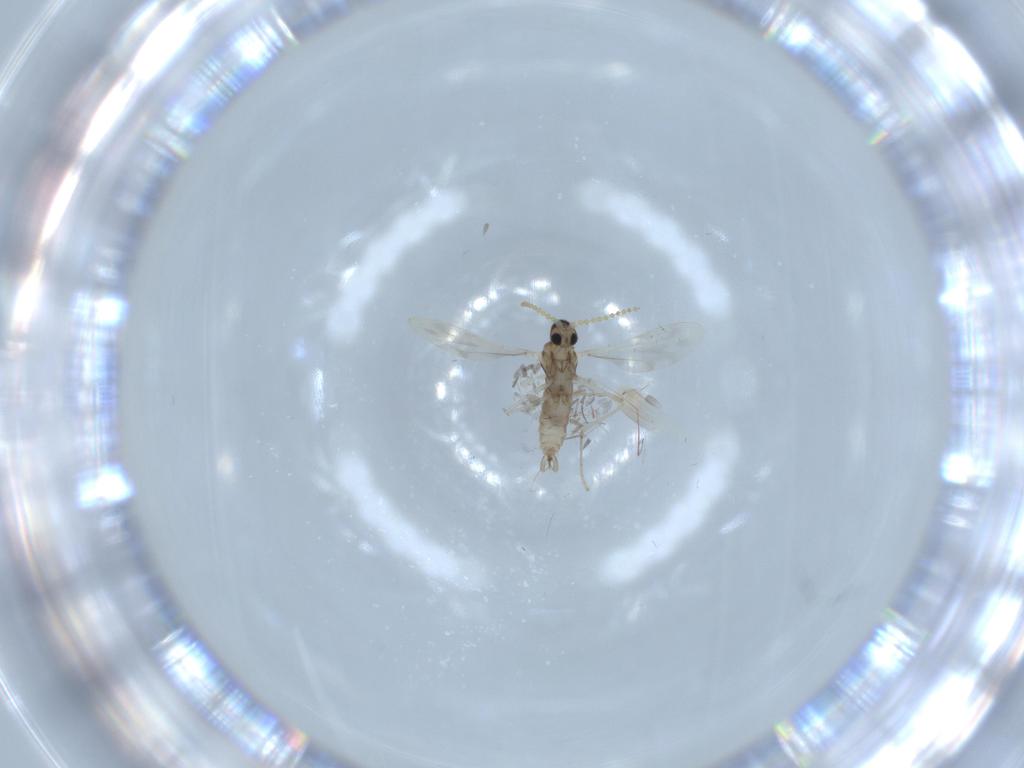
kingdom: Animalia
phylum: Arthropoda
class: Insecta
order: Diptera
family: Cecidomyiidae
